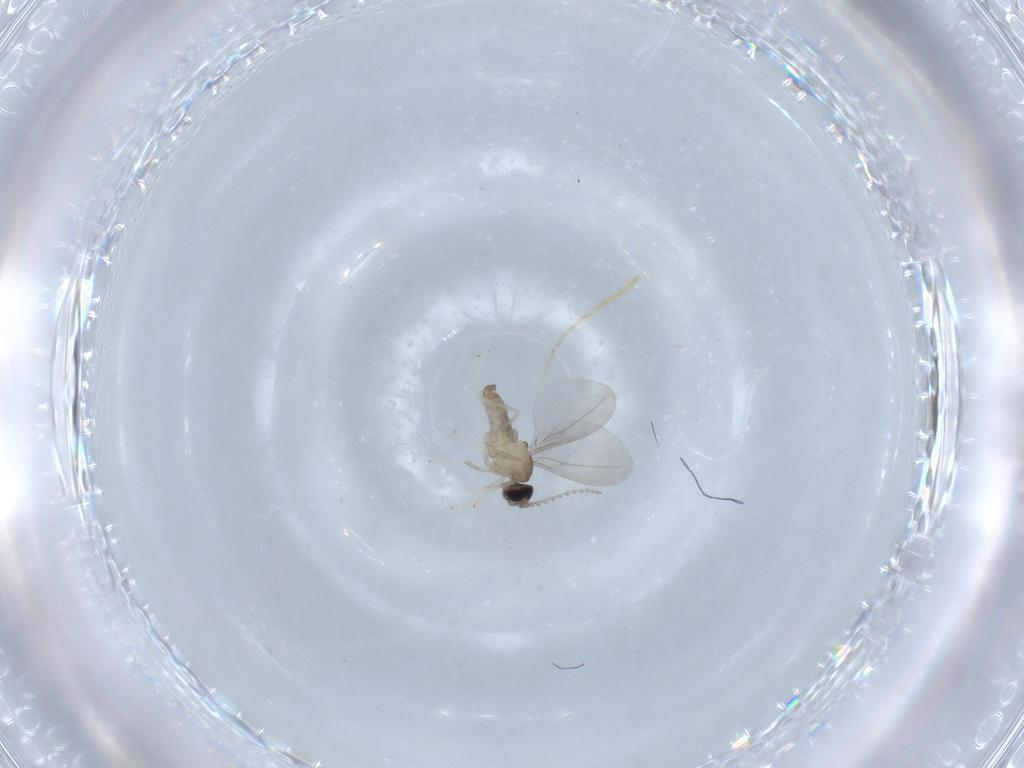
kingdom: Animalia
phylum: Arthropoda
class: Insecta
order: Diptera
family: Cecidomyiidae
